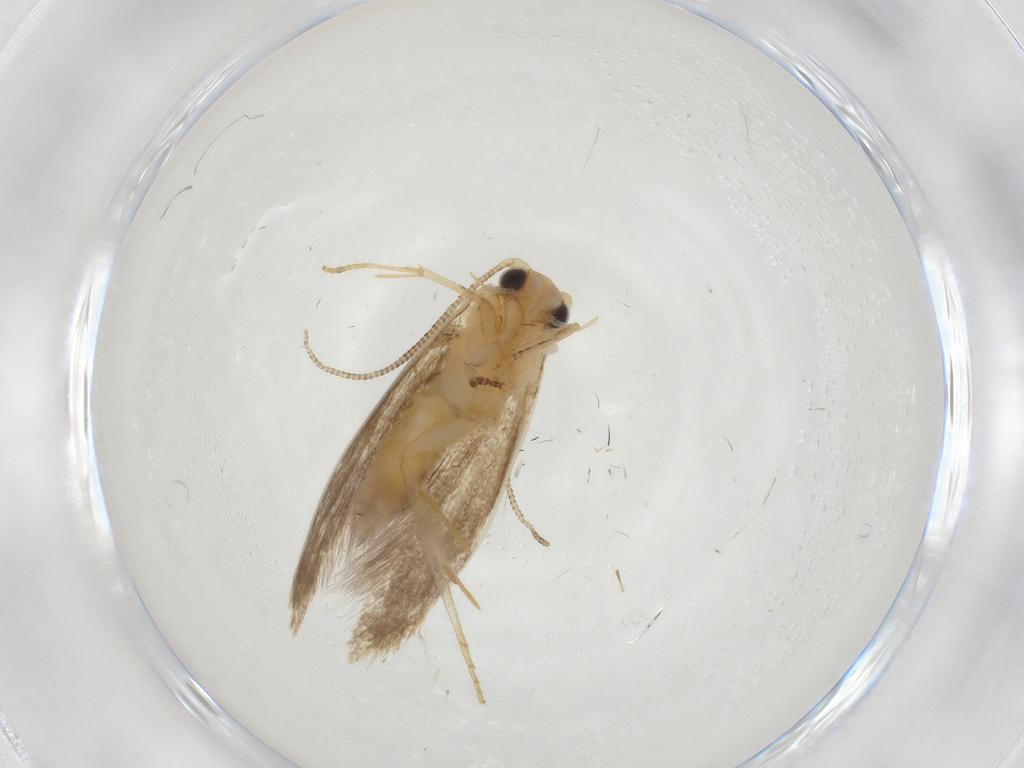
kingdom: Animalia
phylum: Arthropoda
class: Insecta
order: Lepidoptera
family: Tineidae
